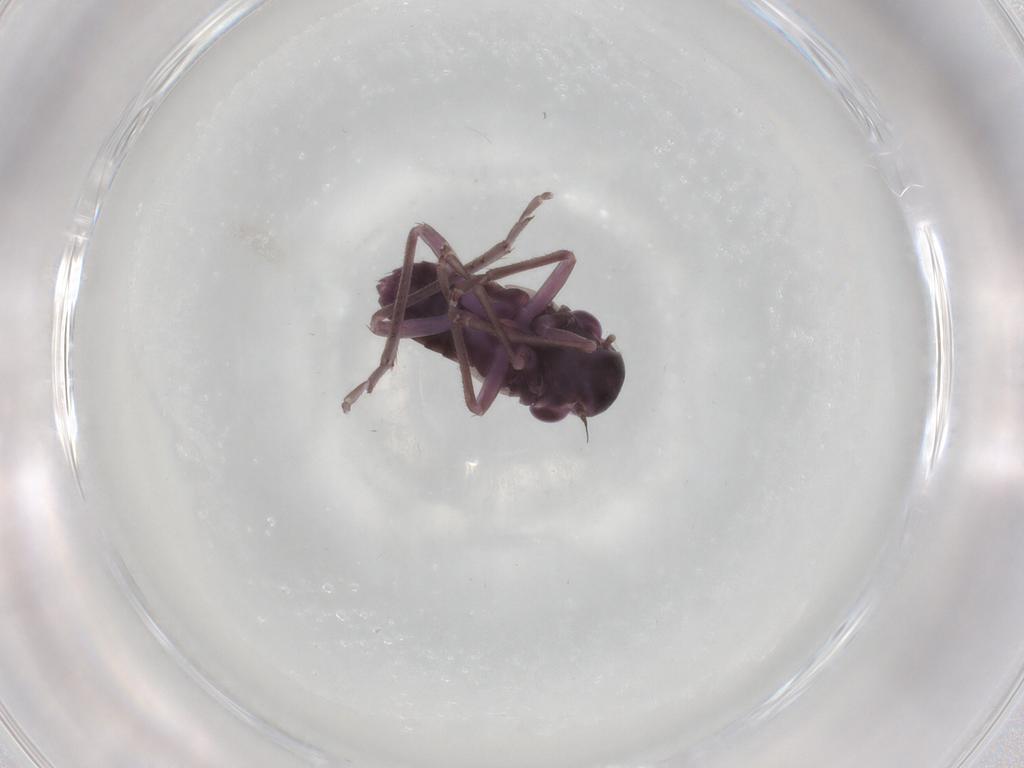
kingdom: Animalia
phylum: Arthropoda
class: Insecta
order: Hemiptera
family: Cicadellidae
